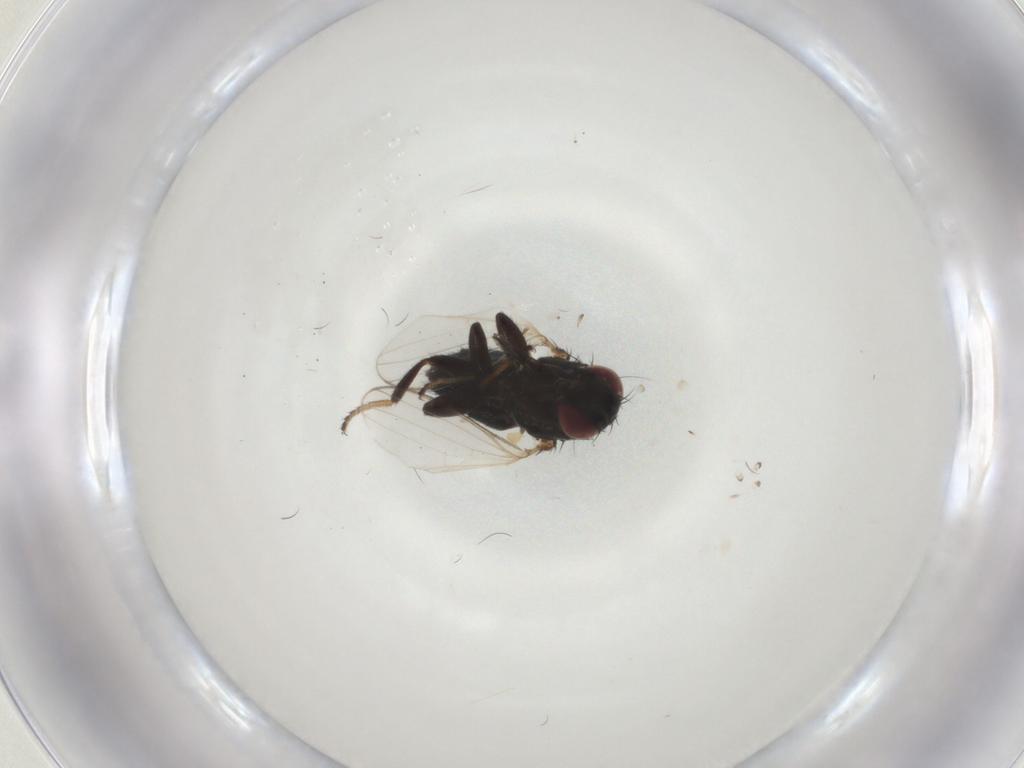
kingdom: Animalia
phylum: Arthropoda
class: Insecta
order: Diptera
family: Milichiidae
